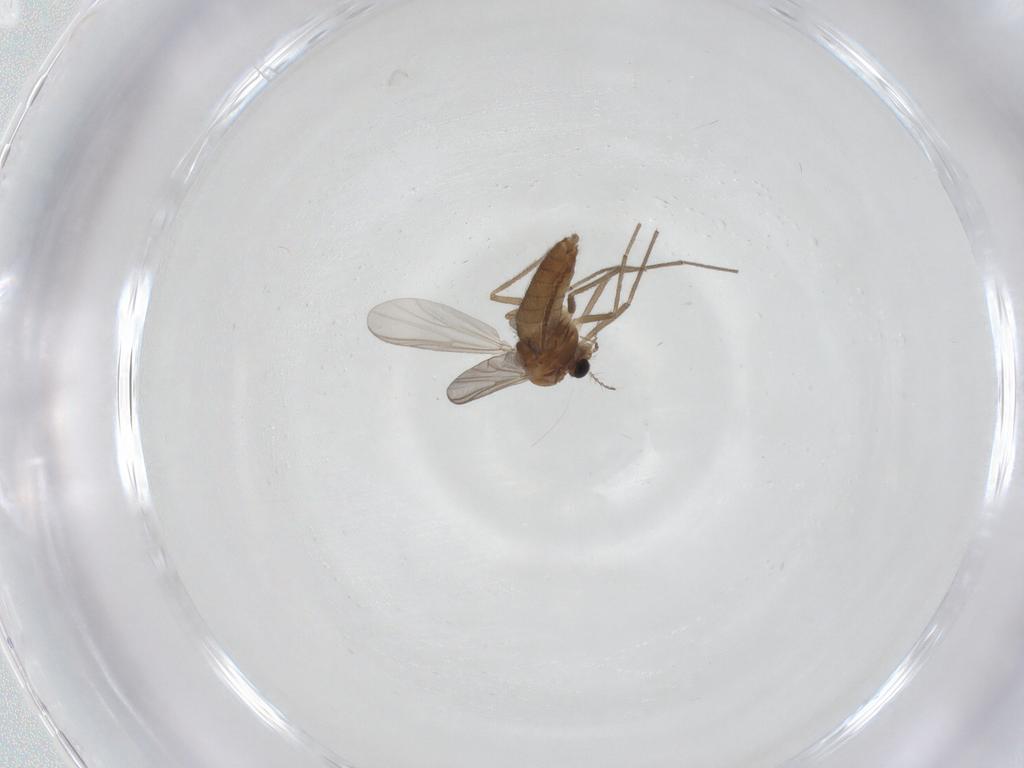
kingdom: Animalia
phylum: Arthropoda
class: Insecta
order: Diptera
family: Chironomidae
